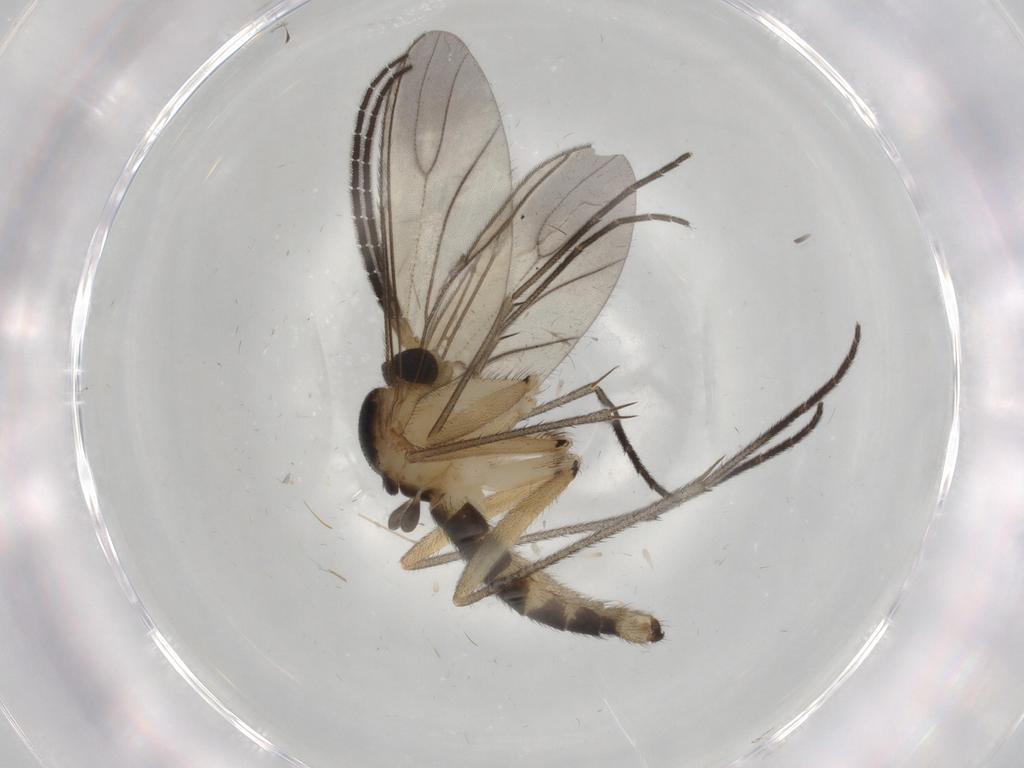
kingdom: Animalia
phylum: Arthropoda
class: Insecta
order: Diptera
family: Sciaridae
